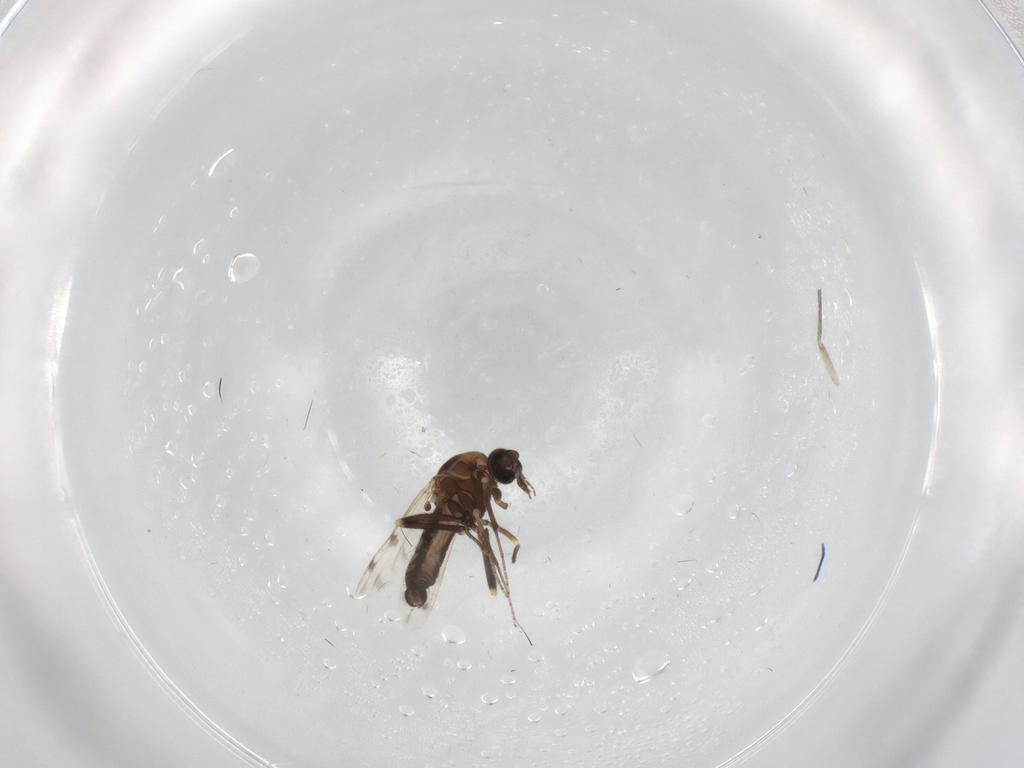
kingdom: Animalia
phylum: Arthropoda
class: Insecta
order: Diptera
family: Ceratopogonidae
